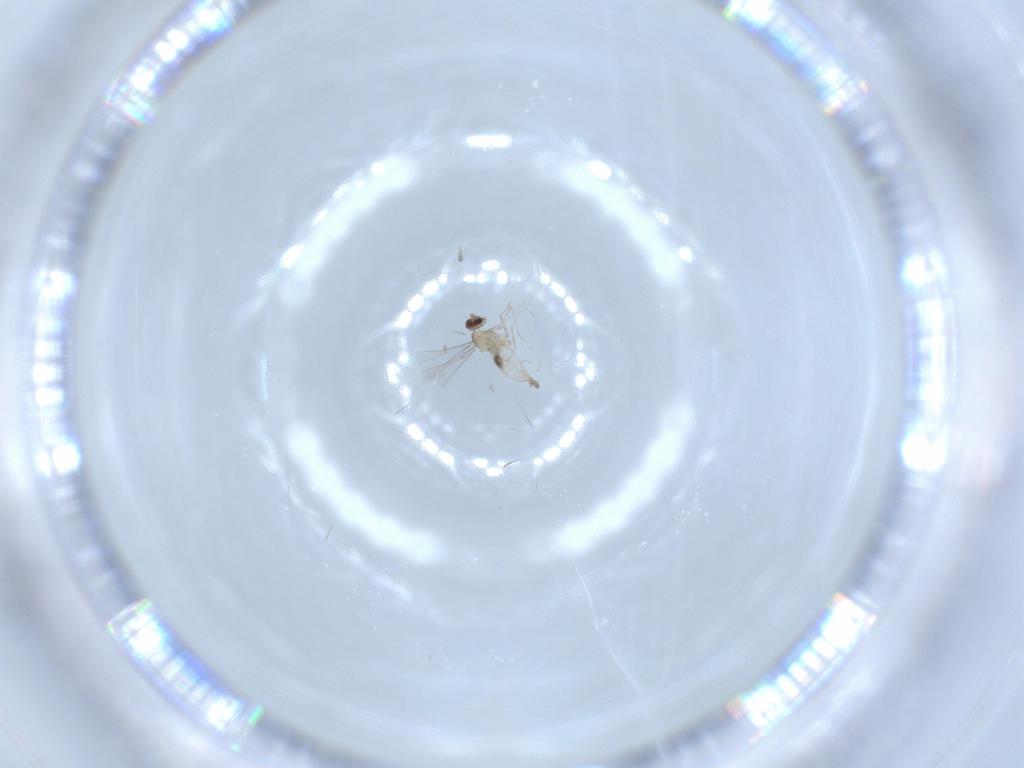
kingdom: Animalia
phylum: Arthropoda
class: Insecta
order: Diptera
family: Cecidomyiidae
